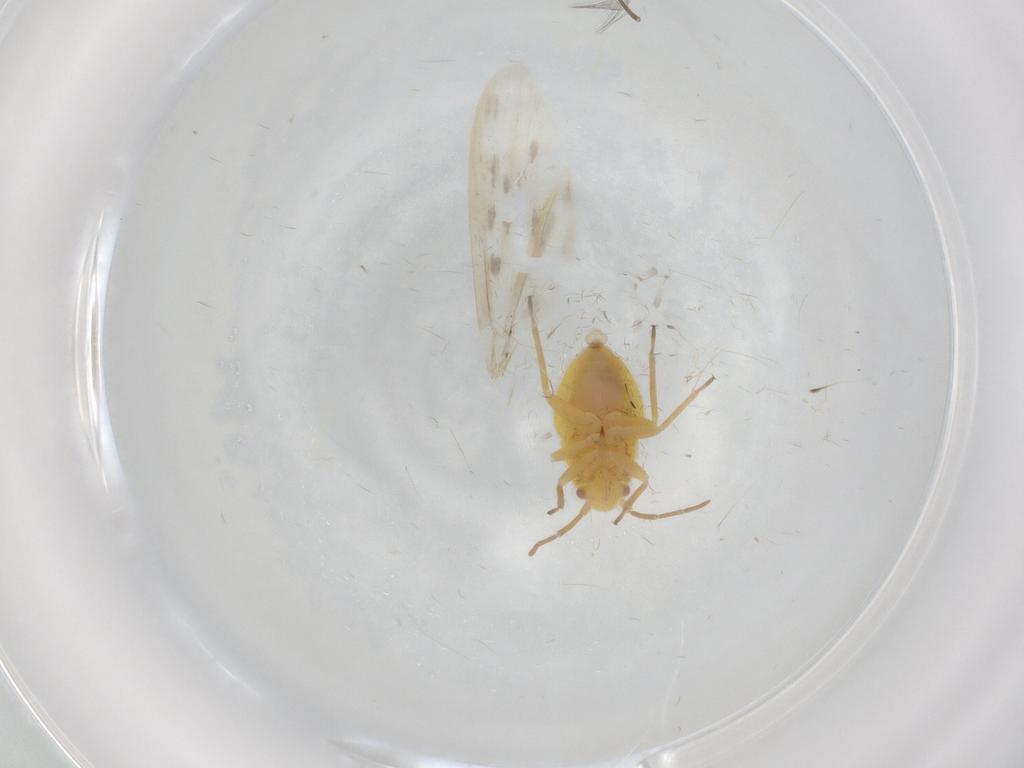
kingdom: Animalia
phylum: Arthropoda
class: Insecta
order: Hemiptera
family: Miridae
